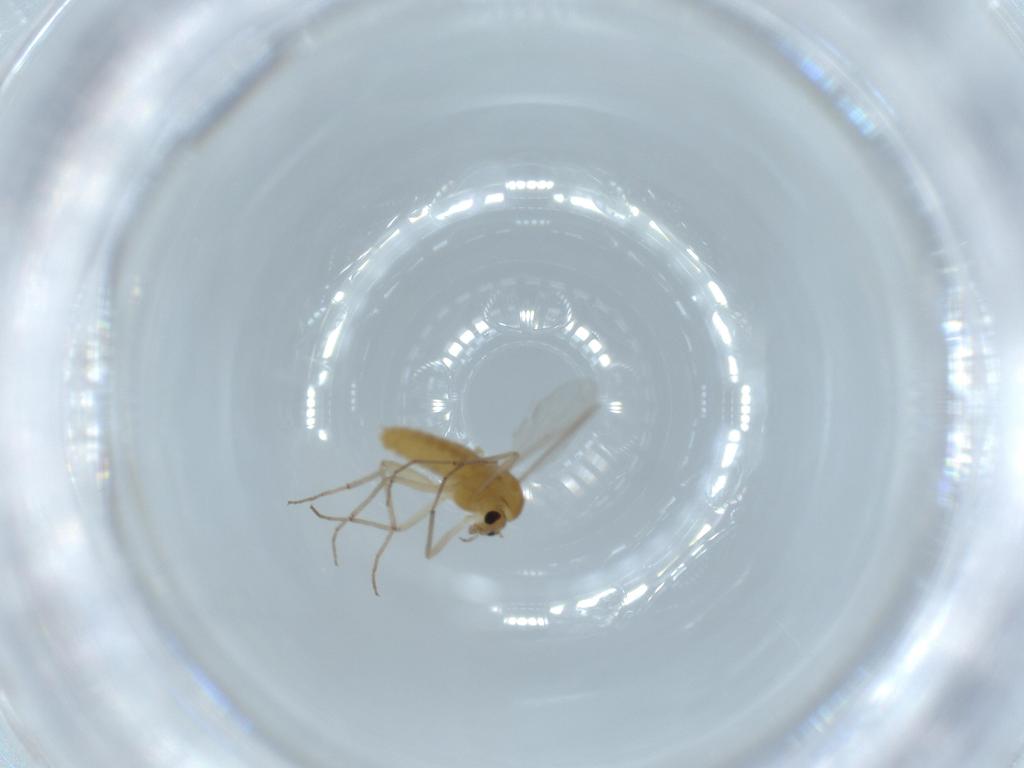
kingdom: Animalia
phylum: Arthropoda
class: Insecta
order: Diptera
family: Chironomidae
